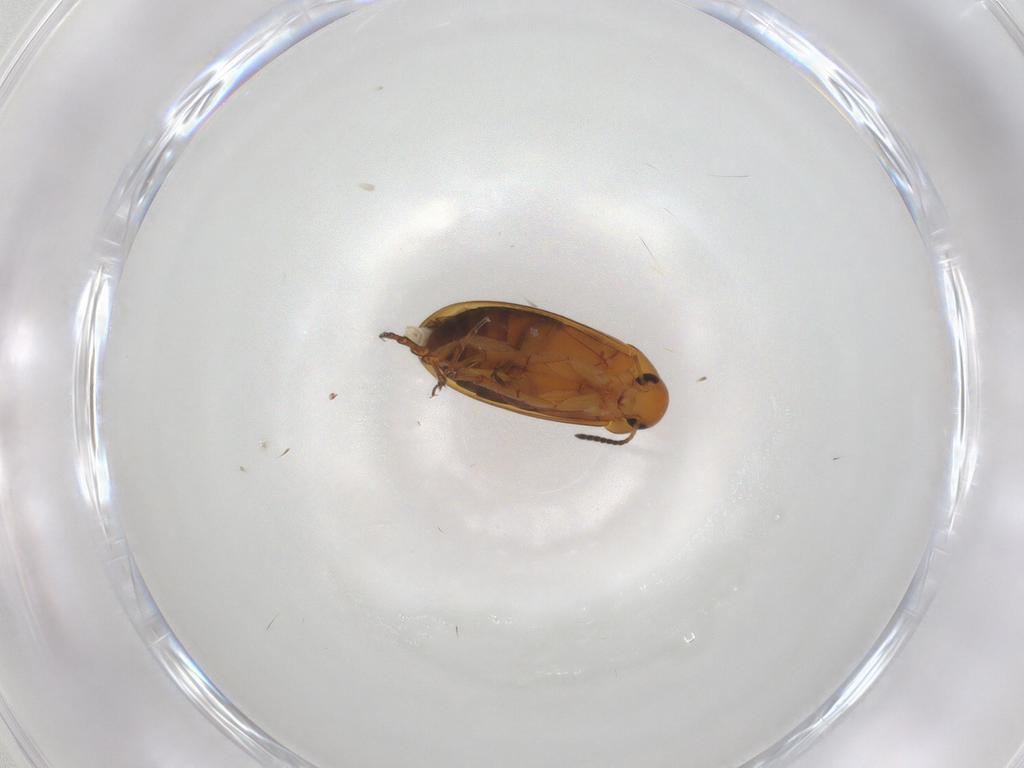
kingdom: Animalia
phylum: Arthropoda
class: Insecta
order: Coleoptera
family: Scraptiidae
